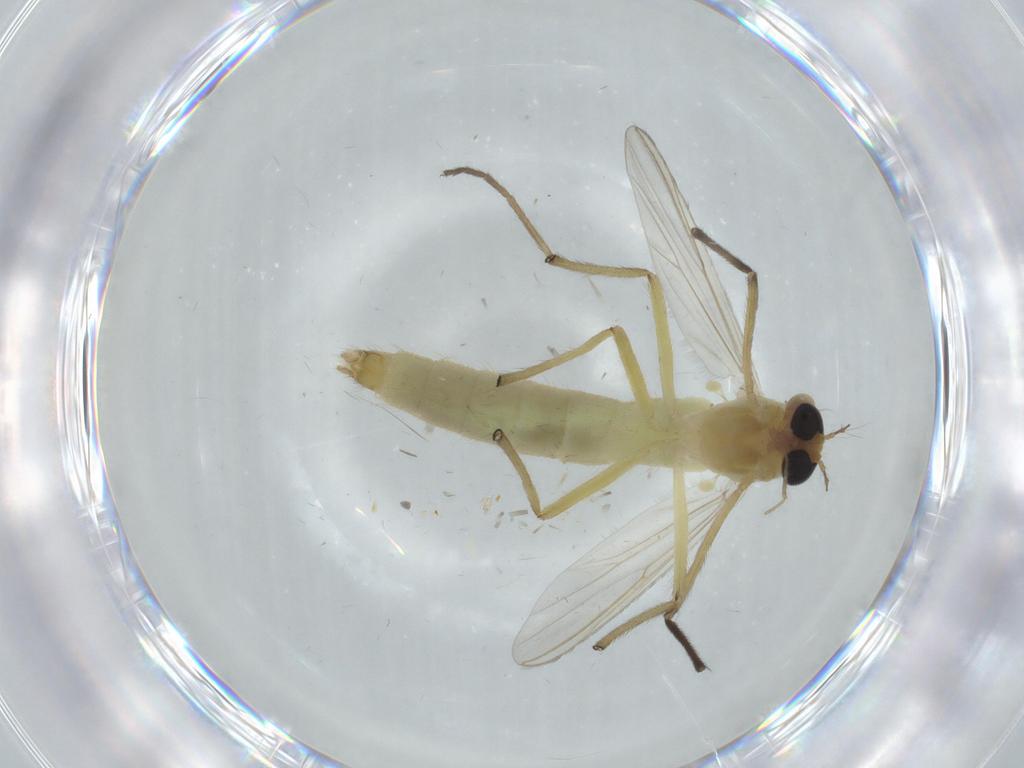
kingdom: Animalia
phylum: Arthropoda
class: Insecta
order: Diptera
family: Chironomidae
